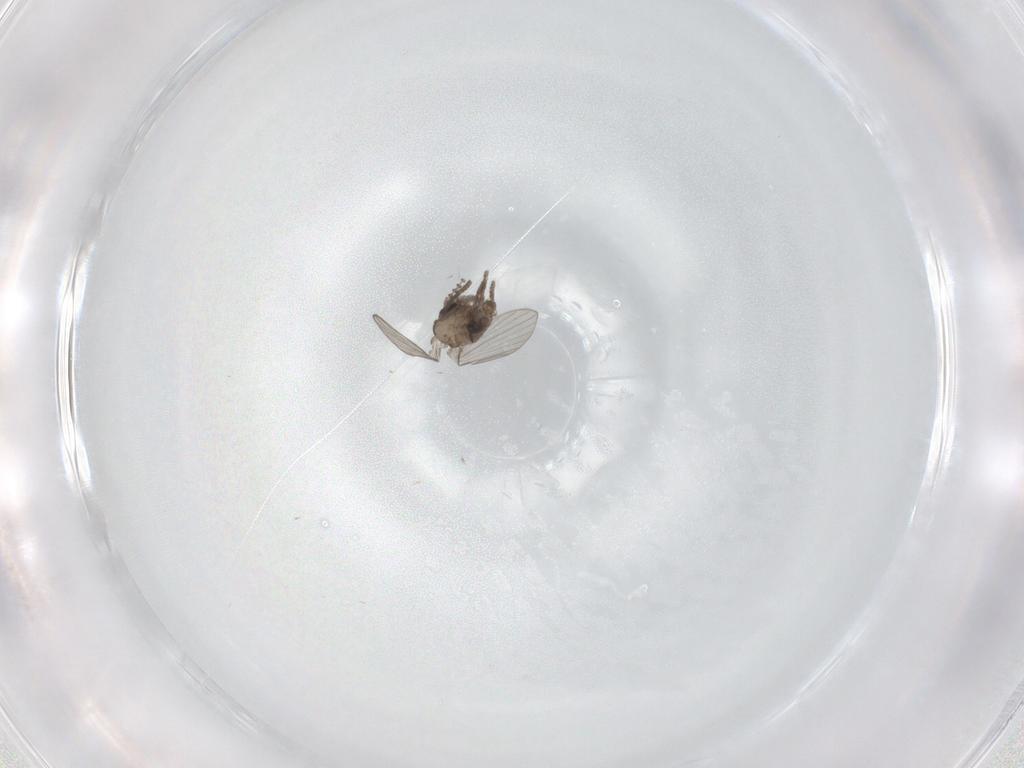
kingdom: Animalia
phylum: Arthropoda
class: Insecta
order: Diptera
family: Psychodidae
